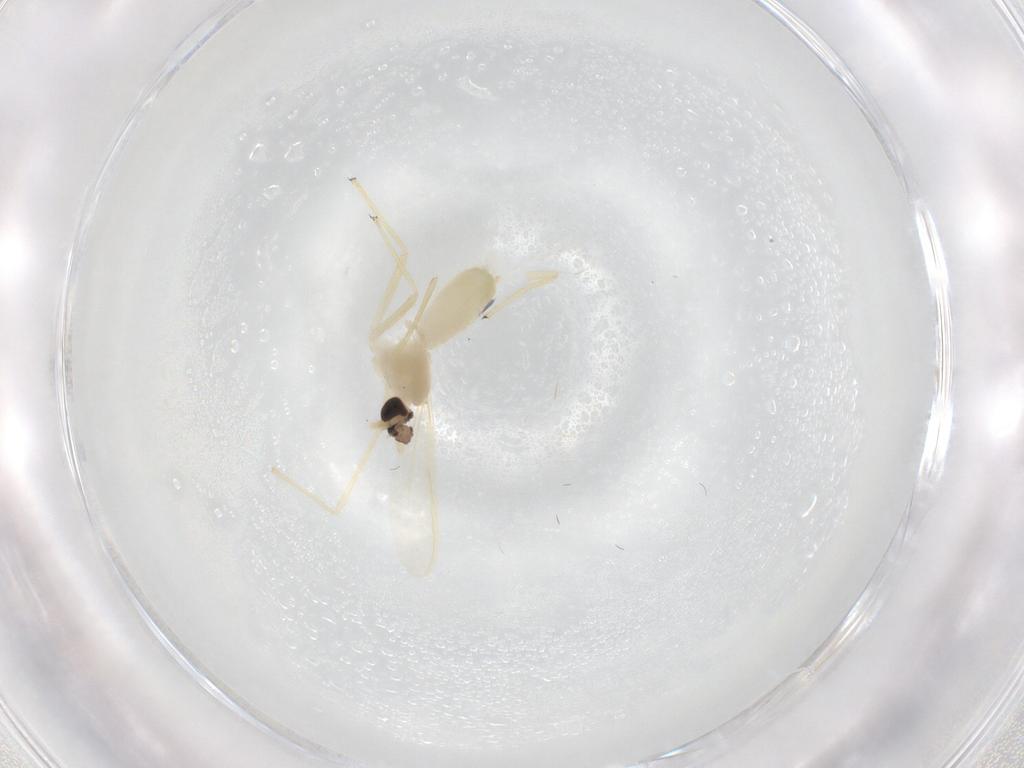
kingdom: Animalia
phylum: Arthropoda
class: Insecta
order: Diptera
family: Chironomidae
